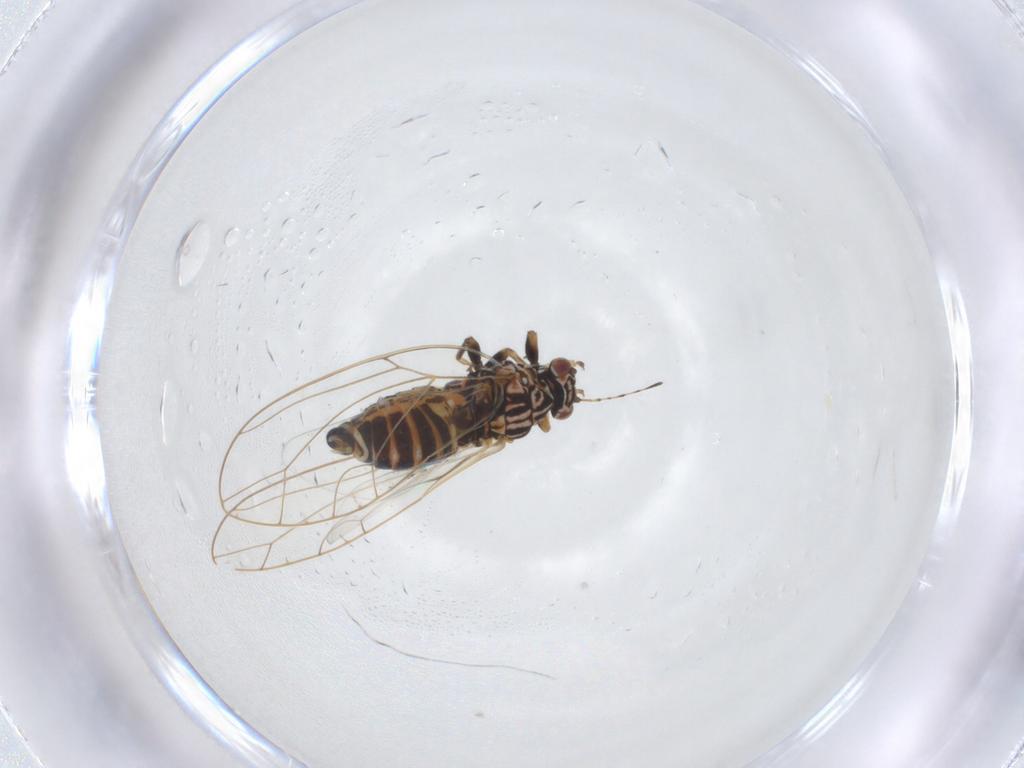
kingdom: Animalia
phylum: Arthropoda
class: Insecta
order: Hemiptera
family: Triozidae
